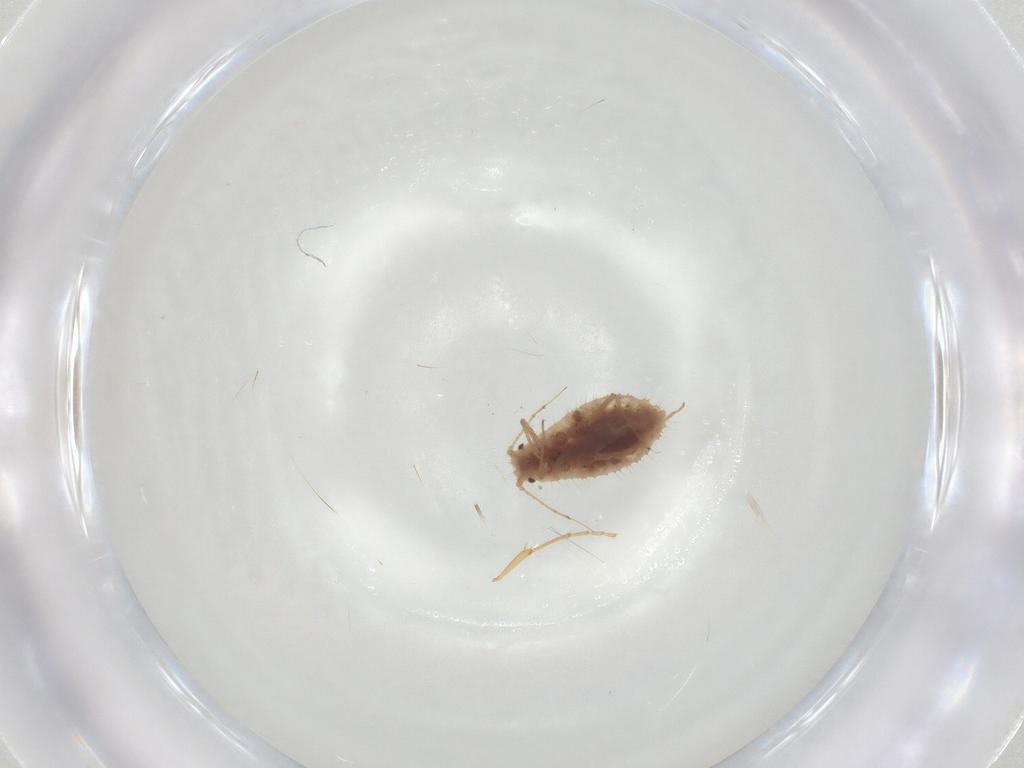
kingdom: Animalia
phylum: Arthropoda
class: Insecta
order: Hemiptera
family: Aphididae
